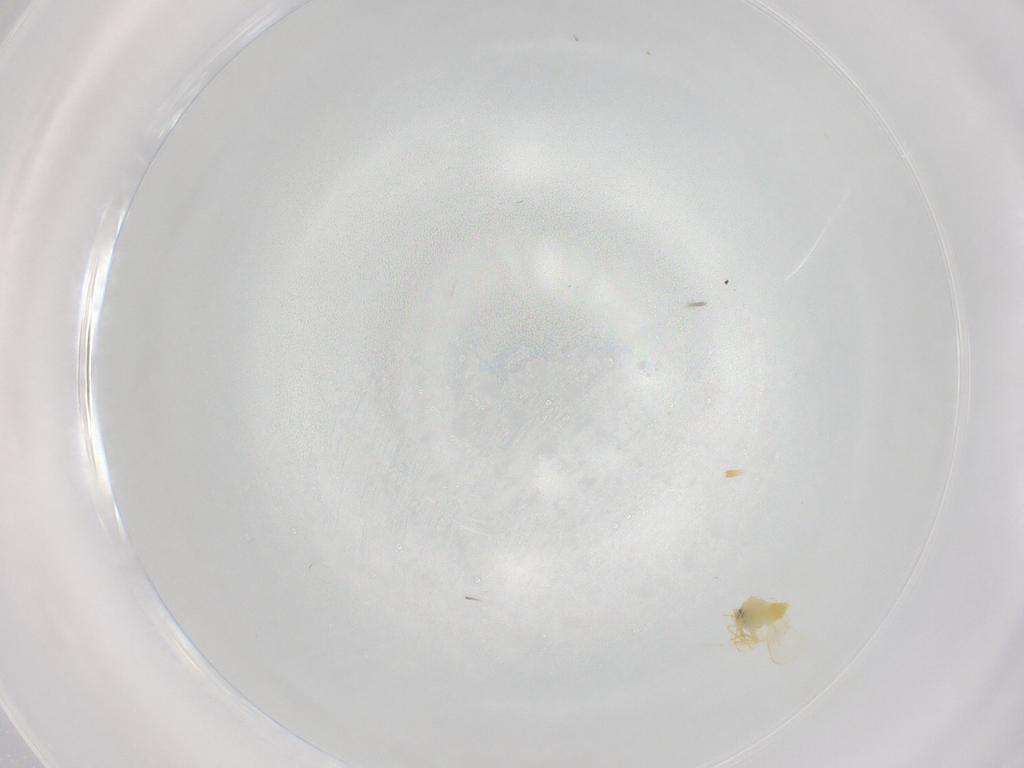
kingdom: Animalia
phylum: Arthropoda
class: Insecta
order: Hemiptera
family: Aleyrodidae
